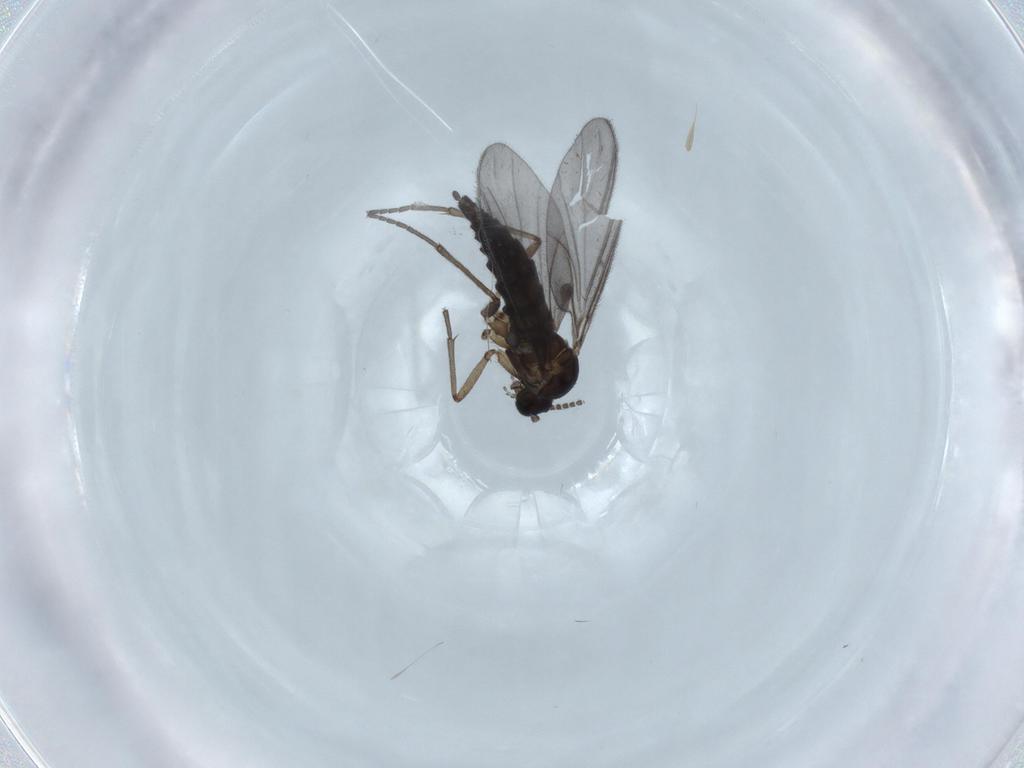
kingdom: Animalia
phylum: Arthropoda
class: Insecta
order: Diptera
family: Sciaridae
